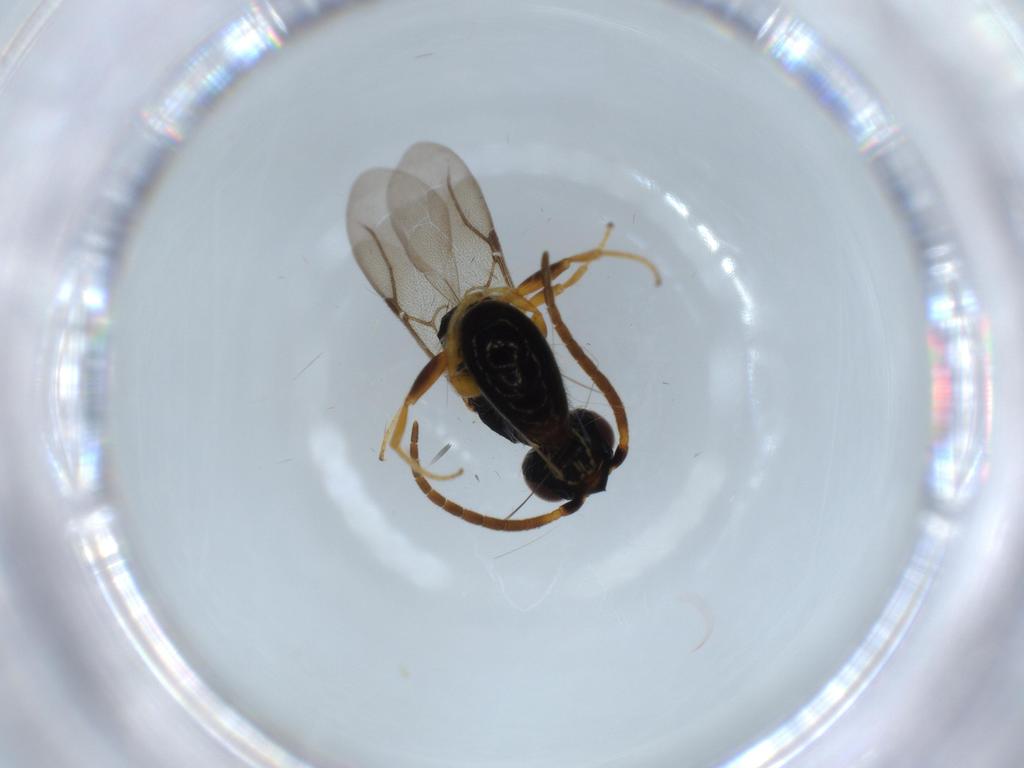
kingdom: Animalia
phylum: Arthropoda
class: Insecta
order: Hymenoptera
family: Bethylidae
